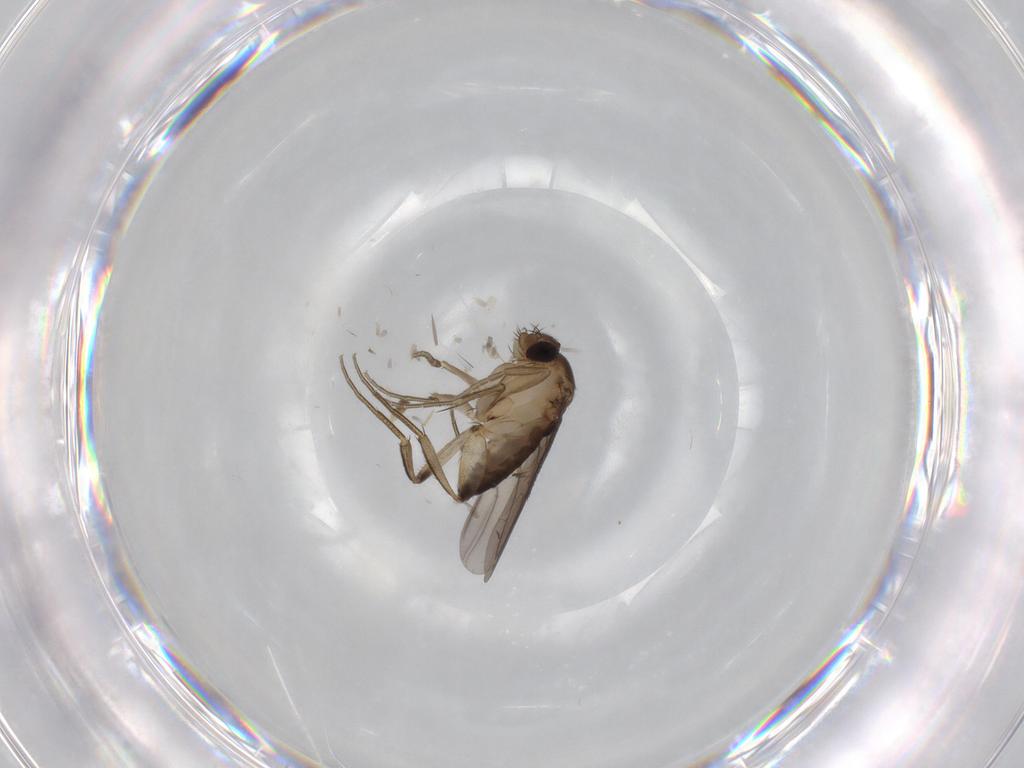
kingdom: Animalia
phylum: Arthropoda
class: Insecta
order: Diptera
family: Phoridae
